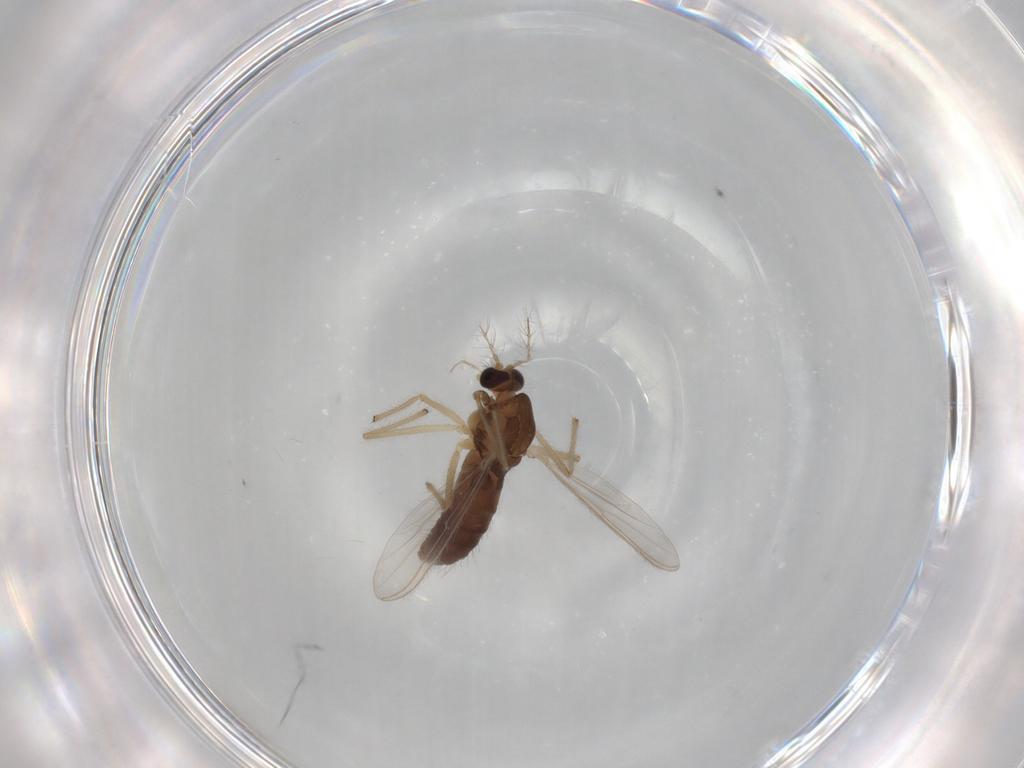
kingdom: Animalia
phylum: Arthropoda
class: Insecta
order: Diptera
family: Chironomidae
